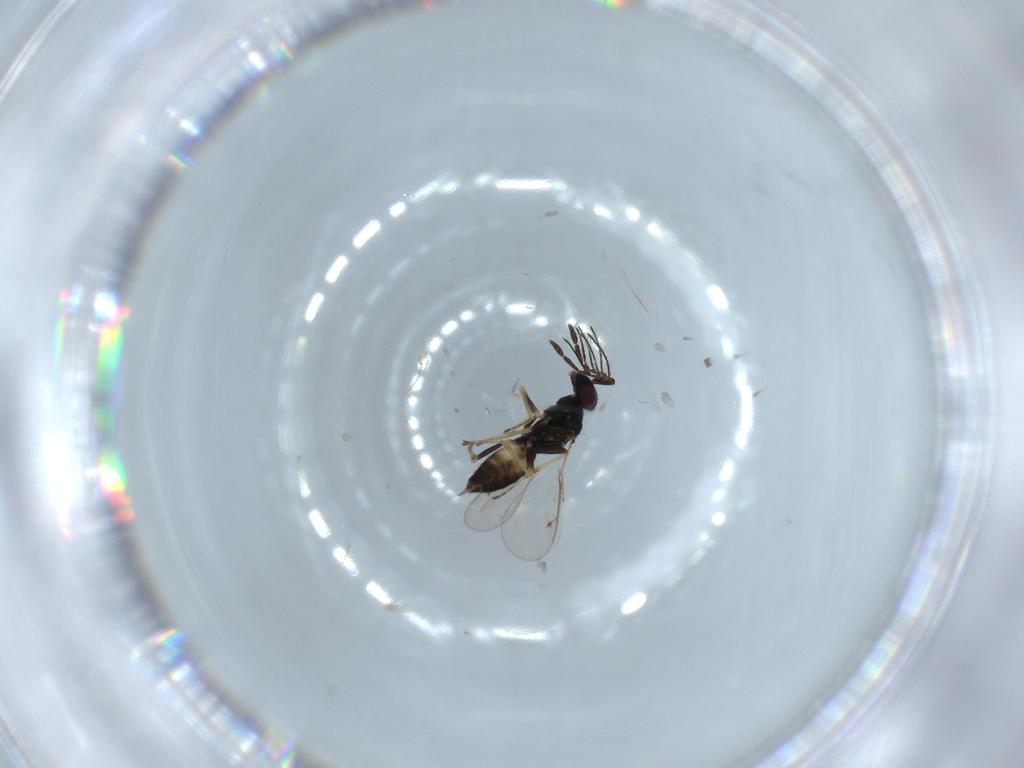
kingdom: Animalia
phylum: Arthropoda
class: Insecta
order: Hymenoptera
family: Eulophidae
